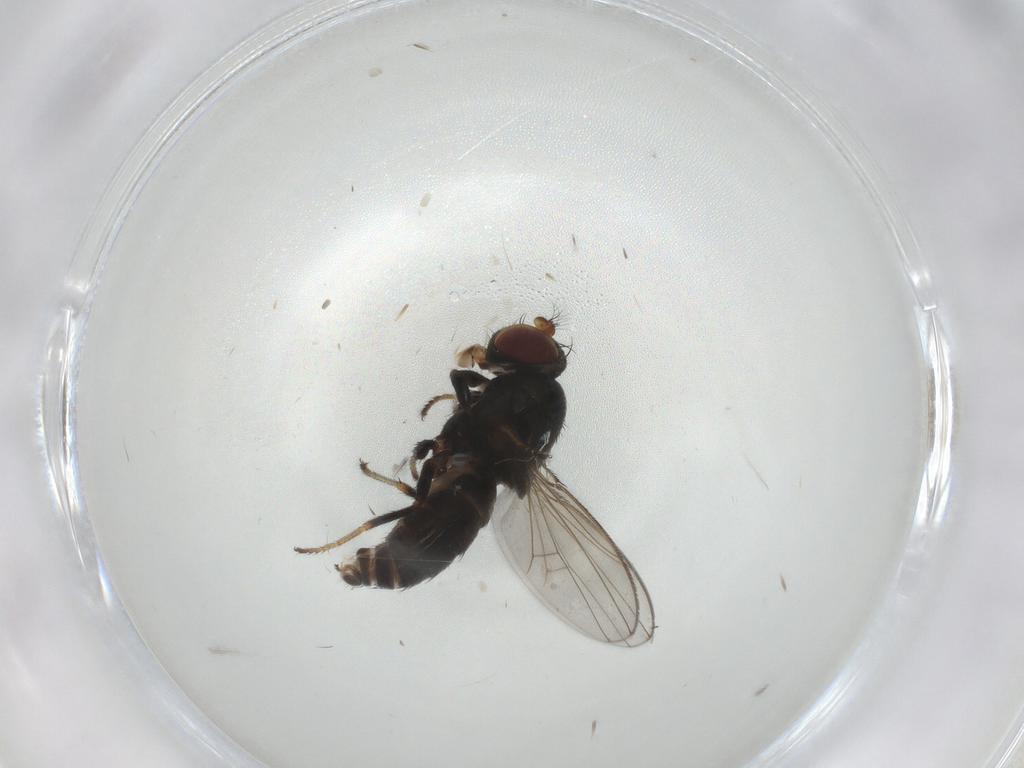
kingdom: Animalia
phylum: Arthropoda
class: Insecta
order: Diptera
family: Ephydridae
